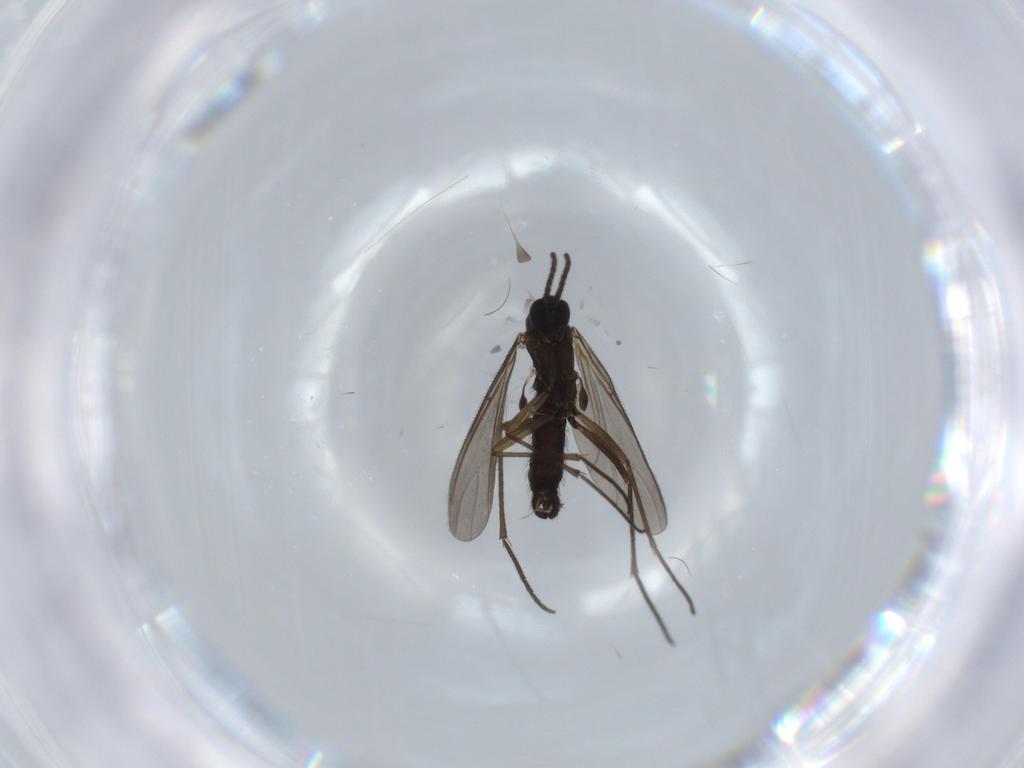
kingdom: Animalia
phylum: Arthropoda
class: Insecta
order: Diptera
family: Sciaridae
